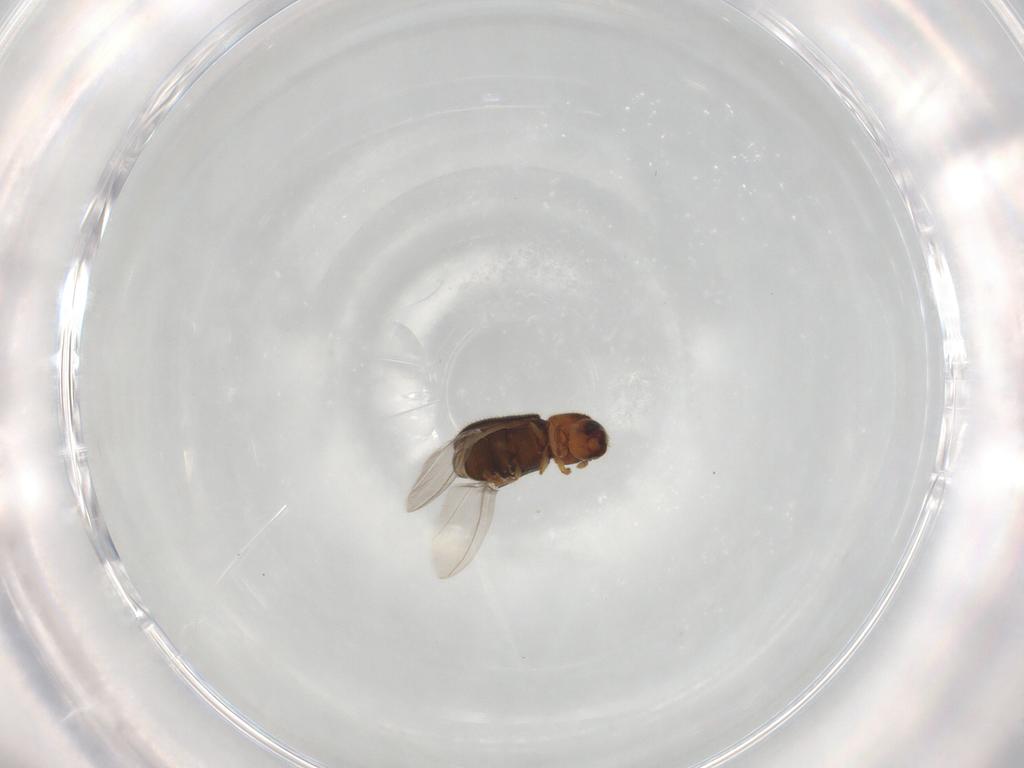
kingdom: Animalia
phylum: Arthropoda
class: Insecta
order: Coleoptera
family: Curculionidae
